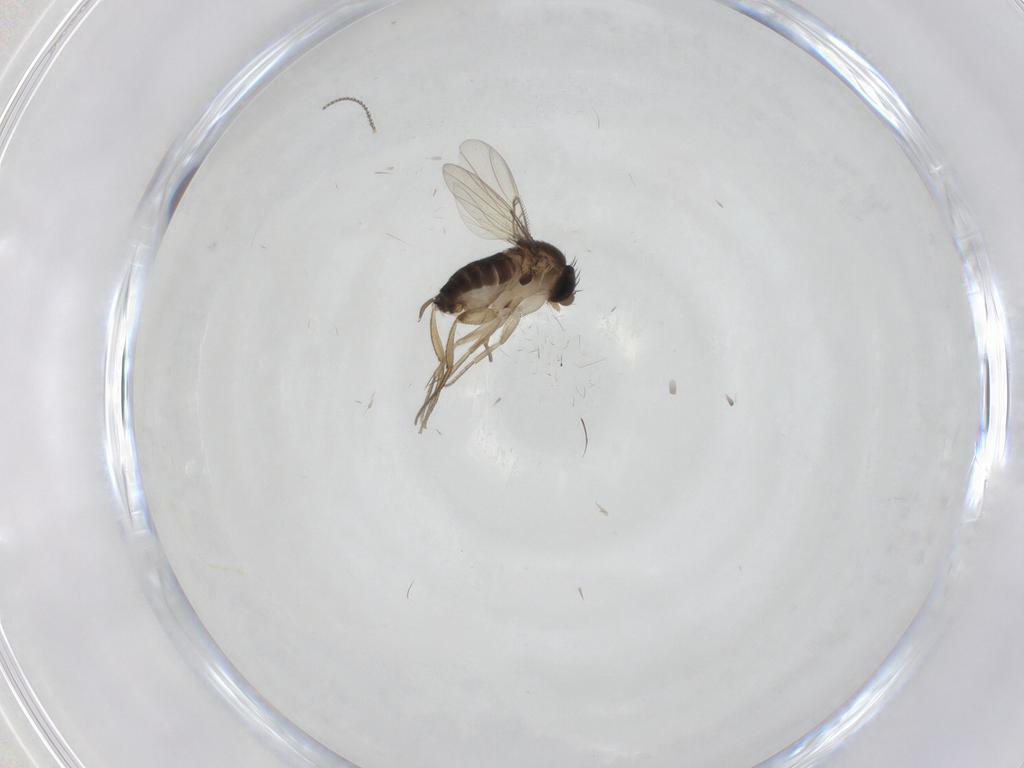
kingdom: Animalia
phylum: Arthropoda
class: Insecta
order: Diptera
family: Cecidomyiidae
